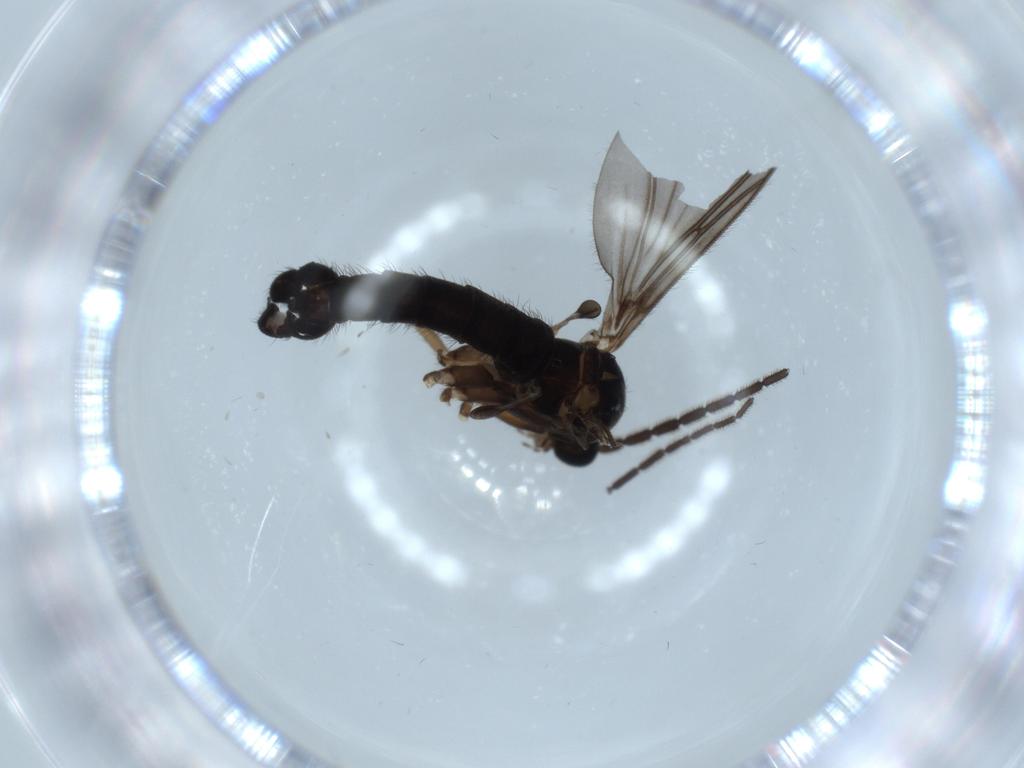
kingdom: Animalia
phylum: Arthropoda
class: Insecta
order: Diptera
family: Sciaridae
